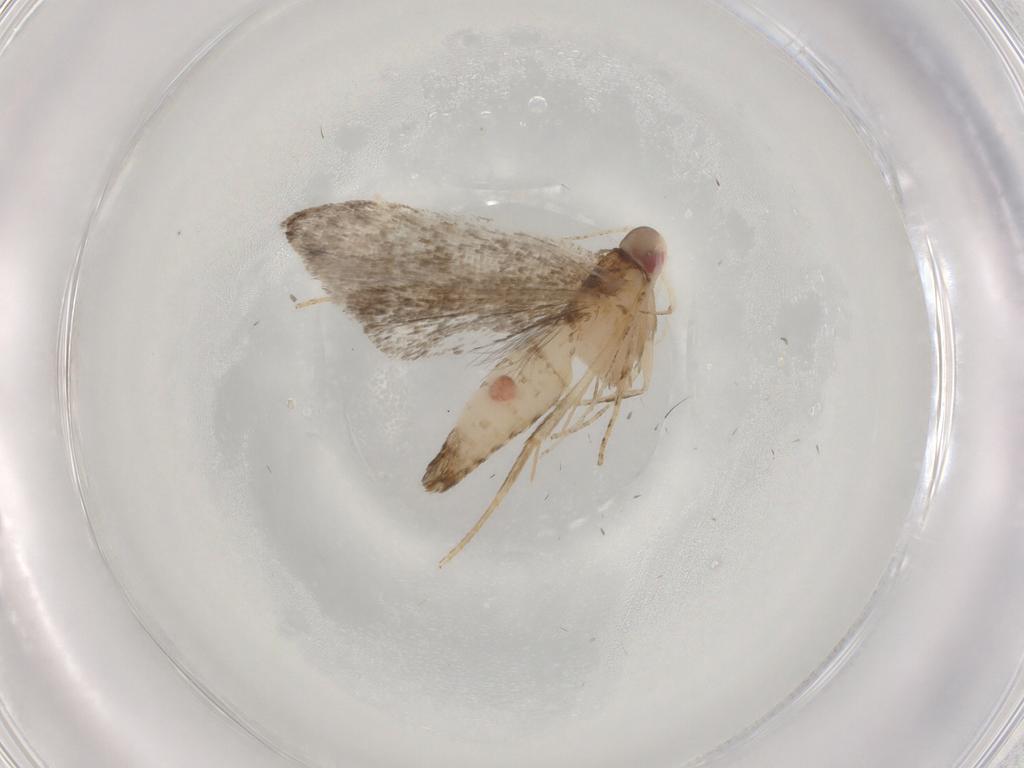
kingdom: Animalia
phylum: Arthropoda
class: Insecta
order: Lepidoptera
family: Gelechiidae
